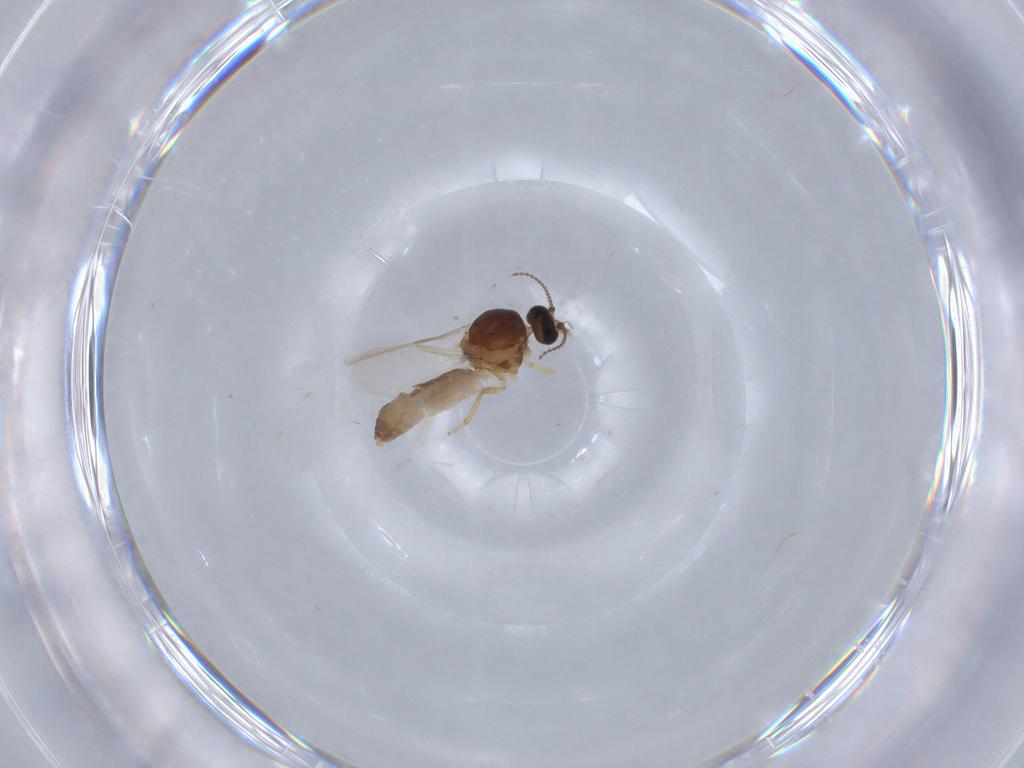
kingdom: Animalia
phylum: Arthropoda
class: Insecta
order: Diptera
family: Ceratopogonidae
